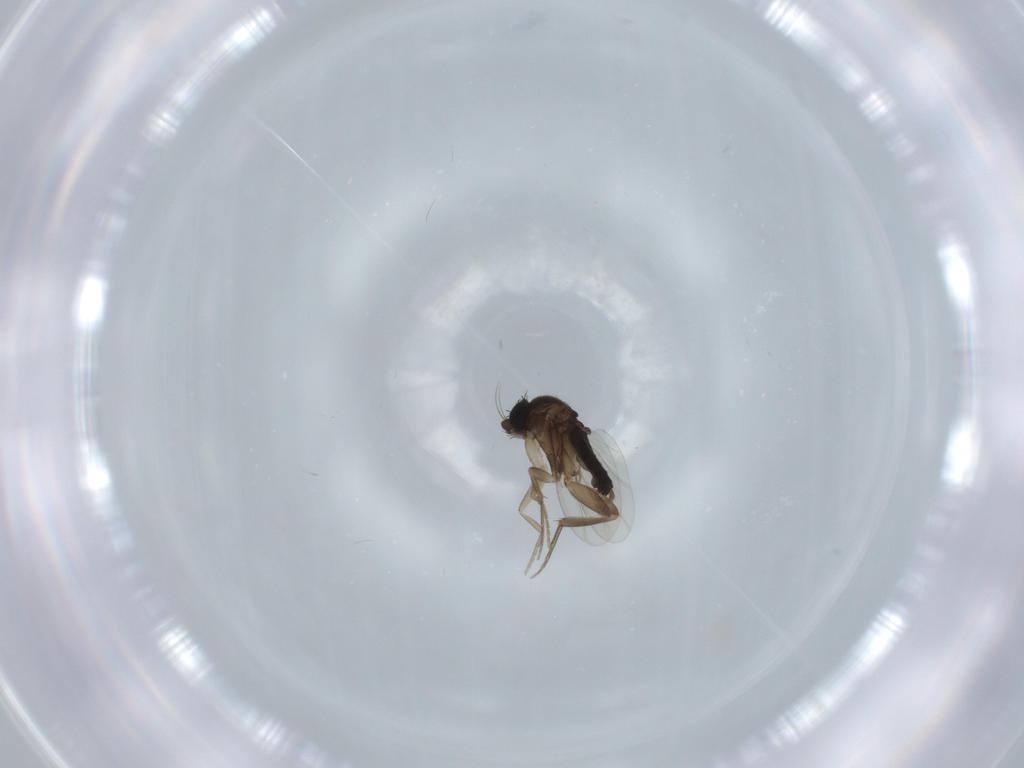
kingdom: Animalia
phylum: Arthropoda
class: Insecta
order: Diptera
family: Phoridae
